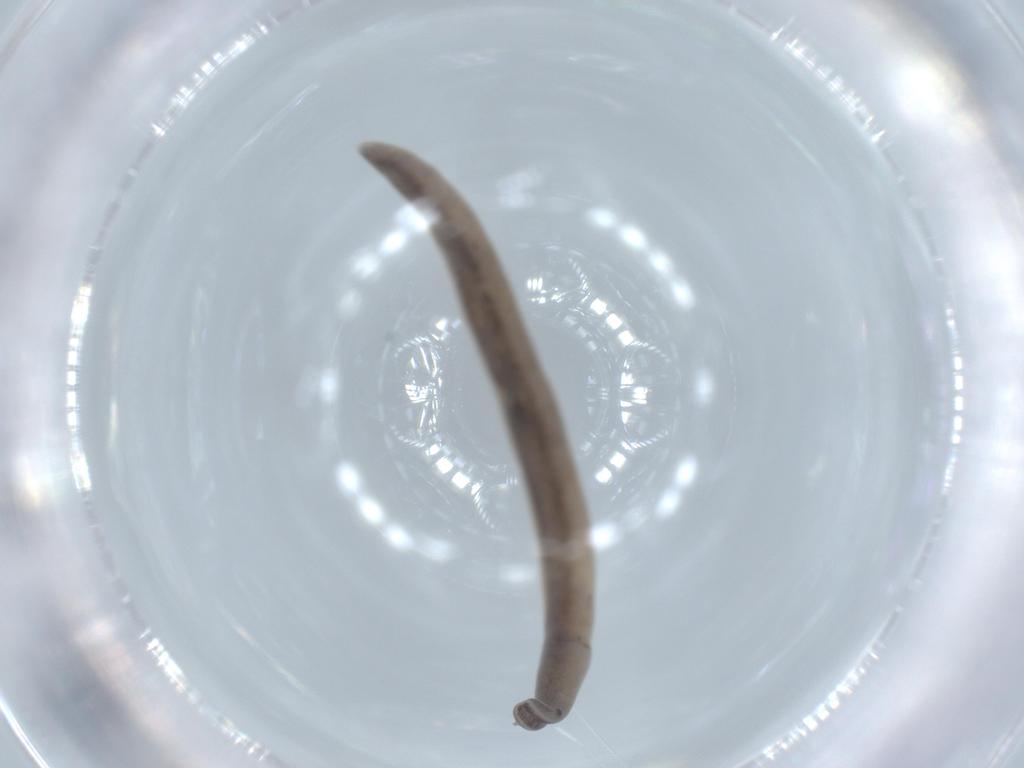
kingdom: Animalia
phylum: Arthropoda
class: Insecta
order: Diptera
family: Sciaridae
